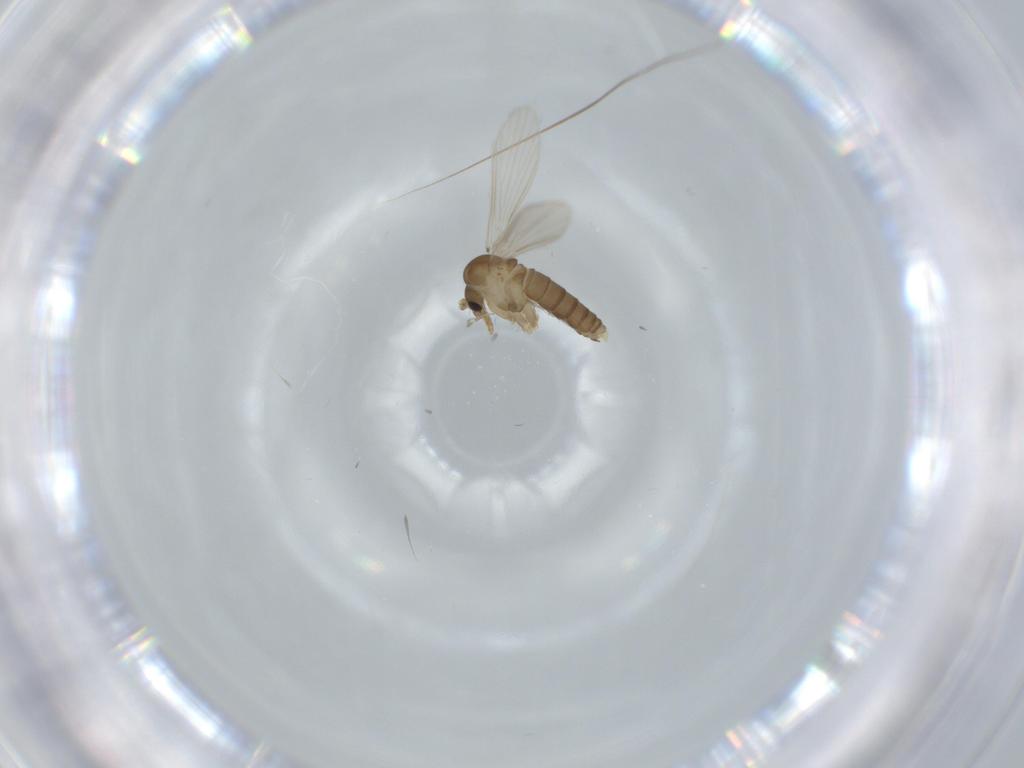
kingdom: Animalia
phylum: Arthropoda
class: Insecta
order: Diptera
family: Psychodidae
